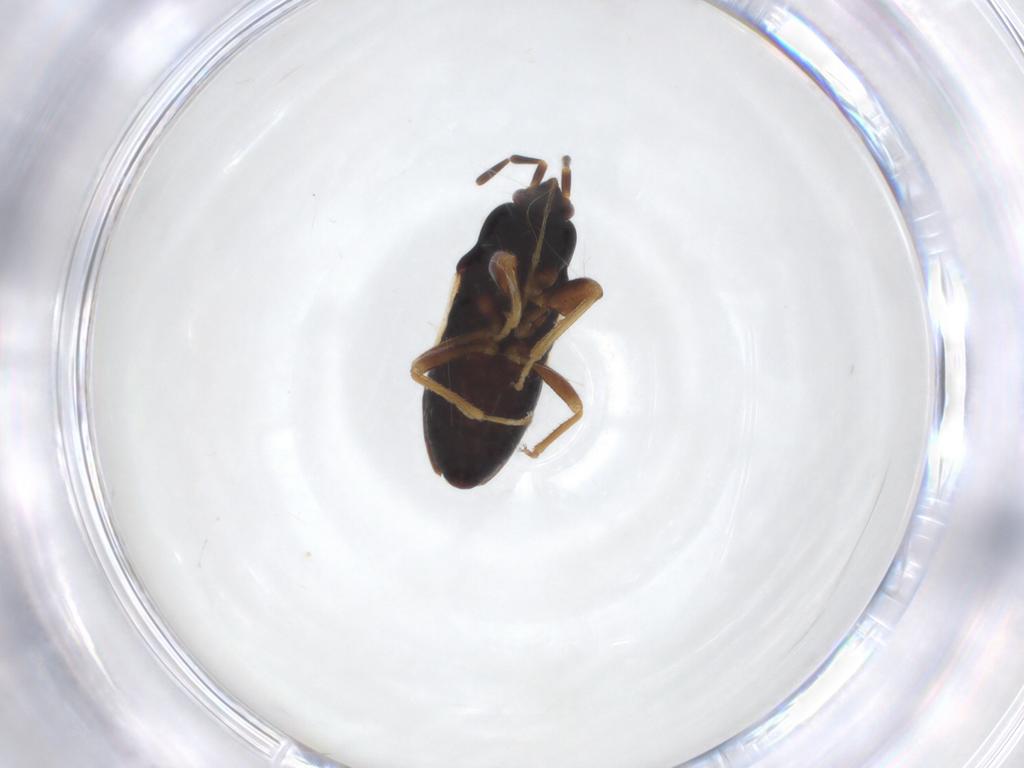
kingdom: Animalia
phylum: Arthropoda
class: Insecta
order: Hemiptera
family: Rhyparochromidae
